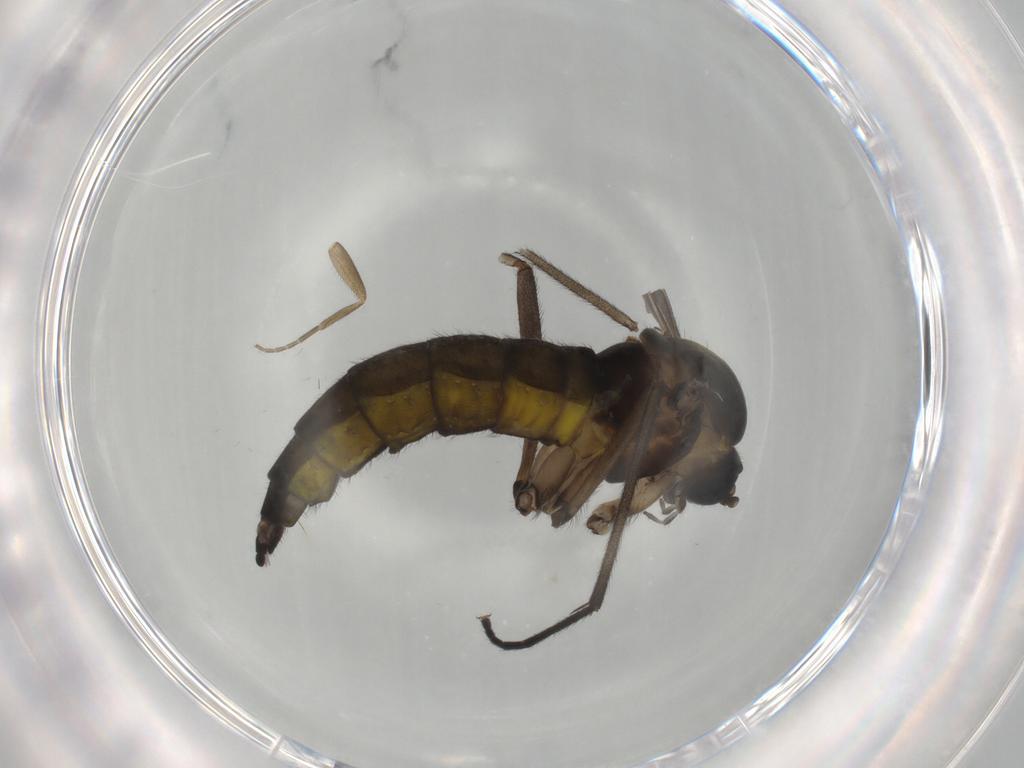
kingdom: Animalia
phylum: Arthropoda
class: Insecta
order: Diptera
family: Sciaridae
